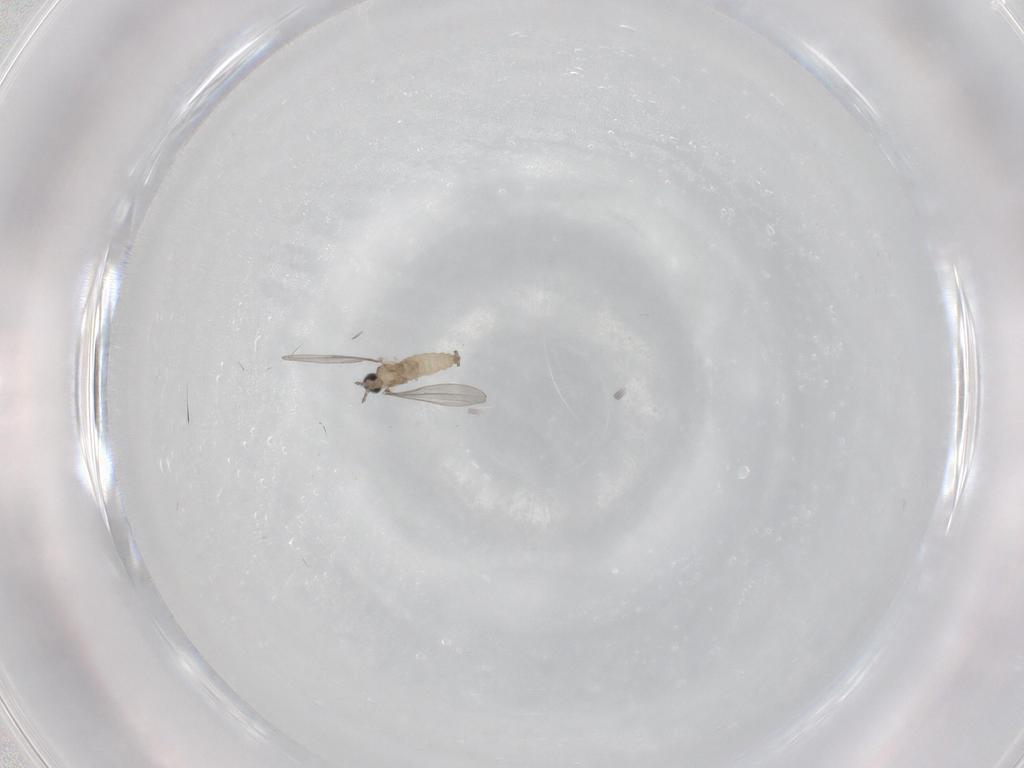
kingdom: Animalia
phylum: Arthropoda
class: Insecta
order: Diptera
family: Cecidomyiidae
